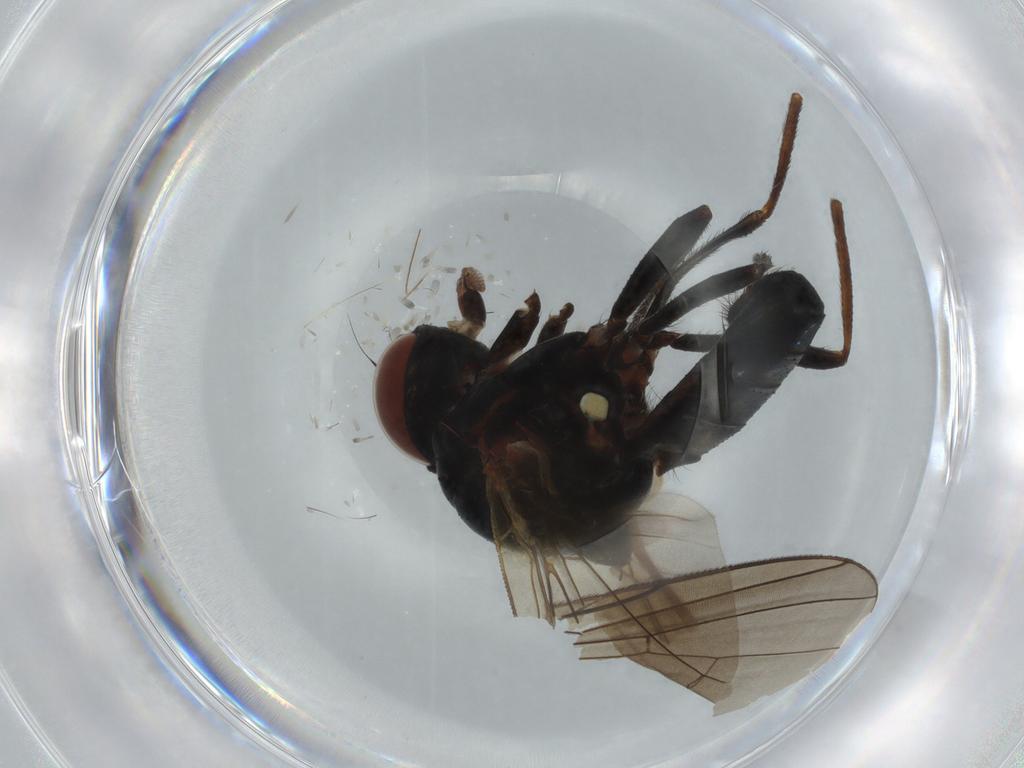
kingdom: Animalia
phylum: Arthropoda
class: Insecta
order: Diptera
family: Anthomyiidae
